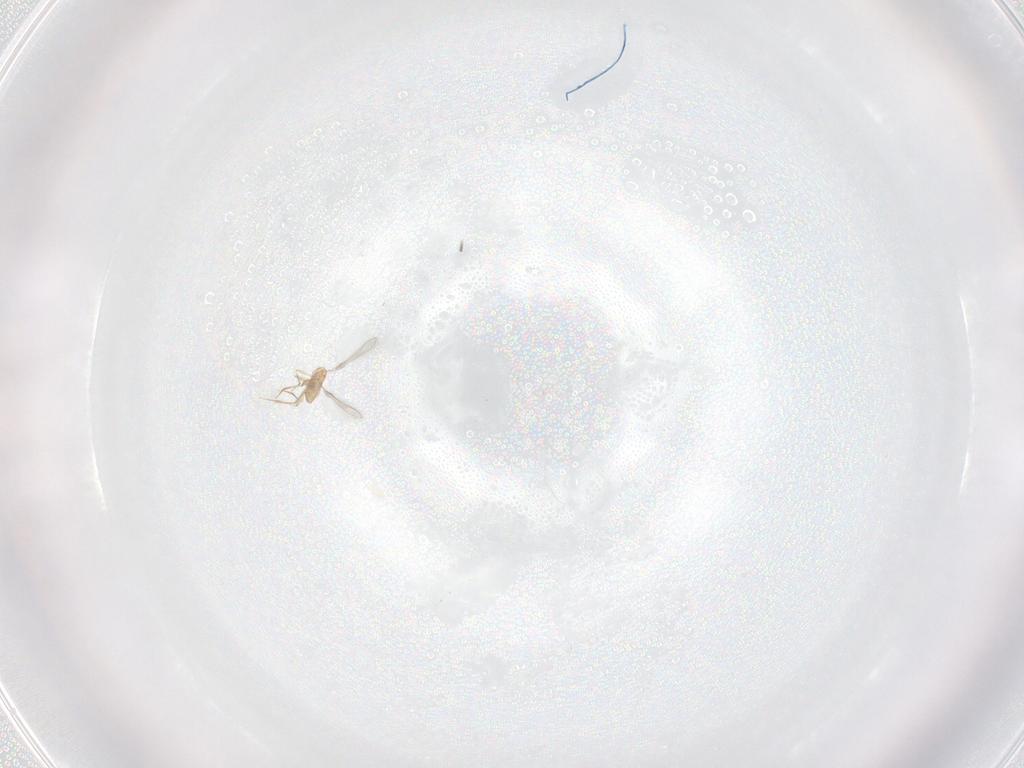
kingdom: Animalia
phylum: Arthropoda
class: Insecta
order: Hymenoptera
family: Mymaridae
